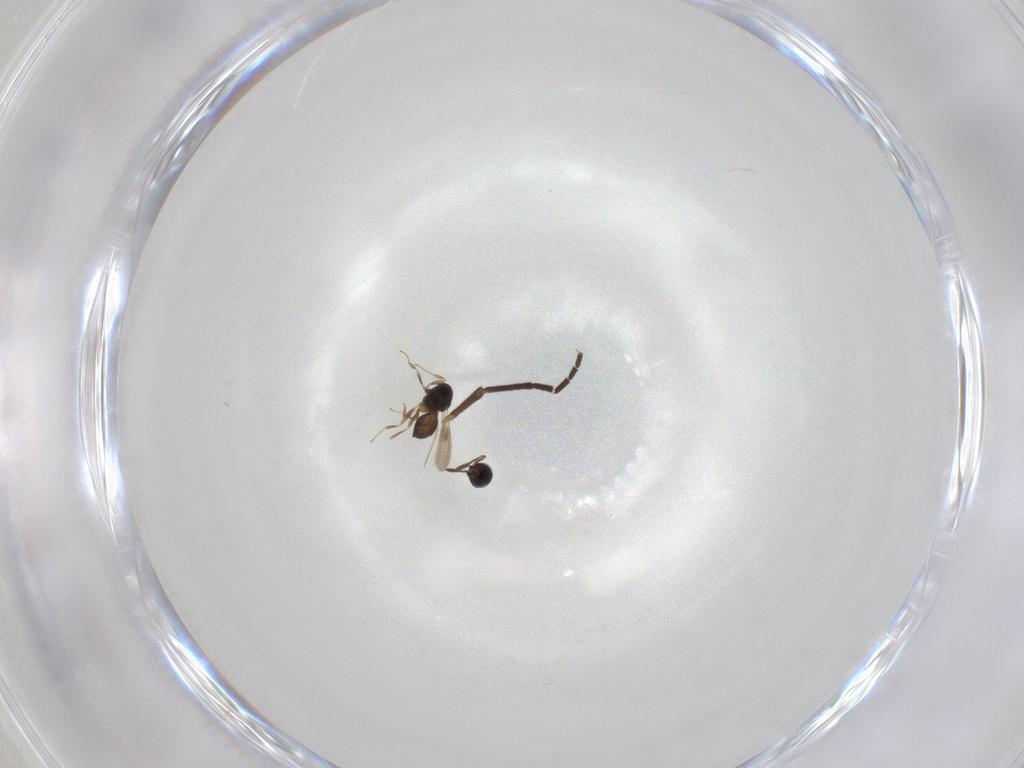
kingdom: Animalia
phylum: Arthropoda
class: Insecta
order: Hymenoptera
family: Scelionidae
